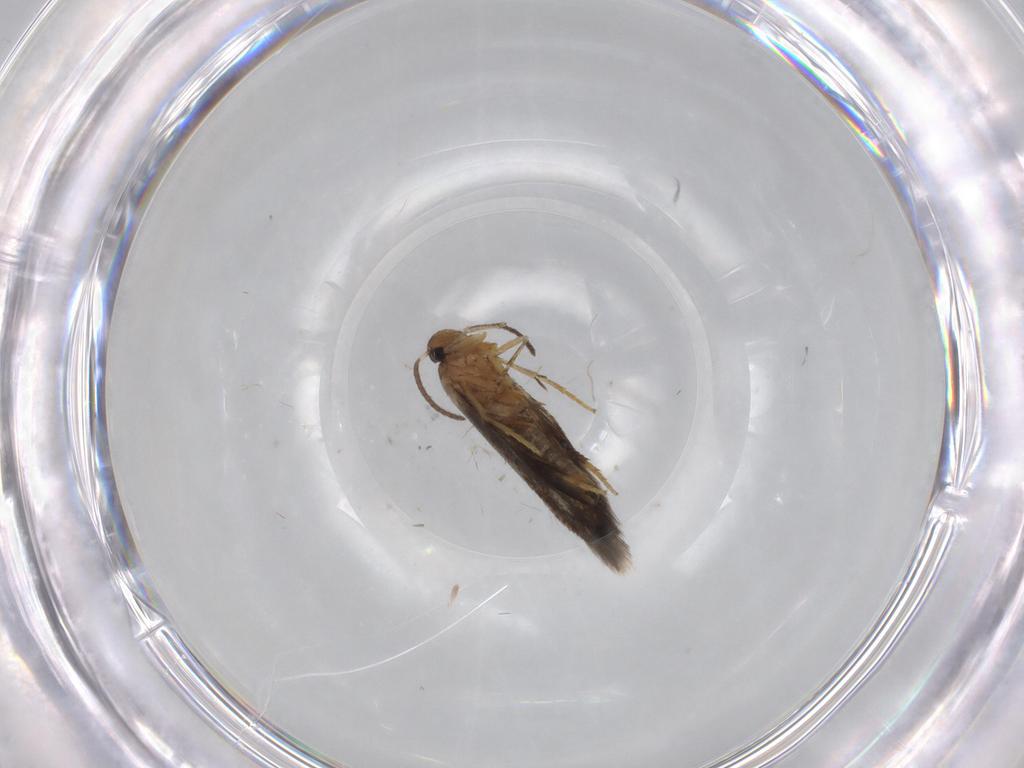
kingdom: Animalia
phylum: Arthropoda
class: Insecta
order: Lepidoptera
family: Heliozelidae
